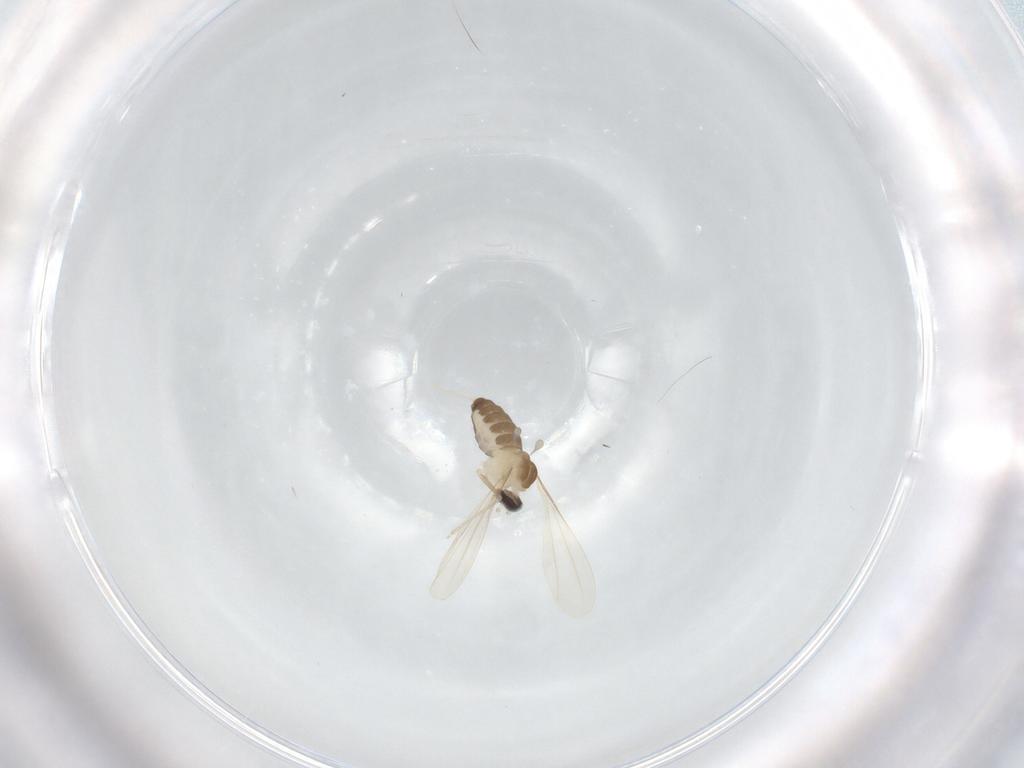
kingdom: Animalia
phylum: Arthropoda
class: Insecta
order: Diptera
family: Cecidomyiidae
